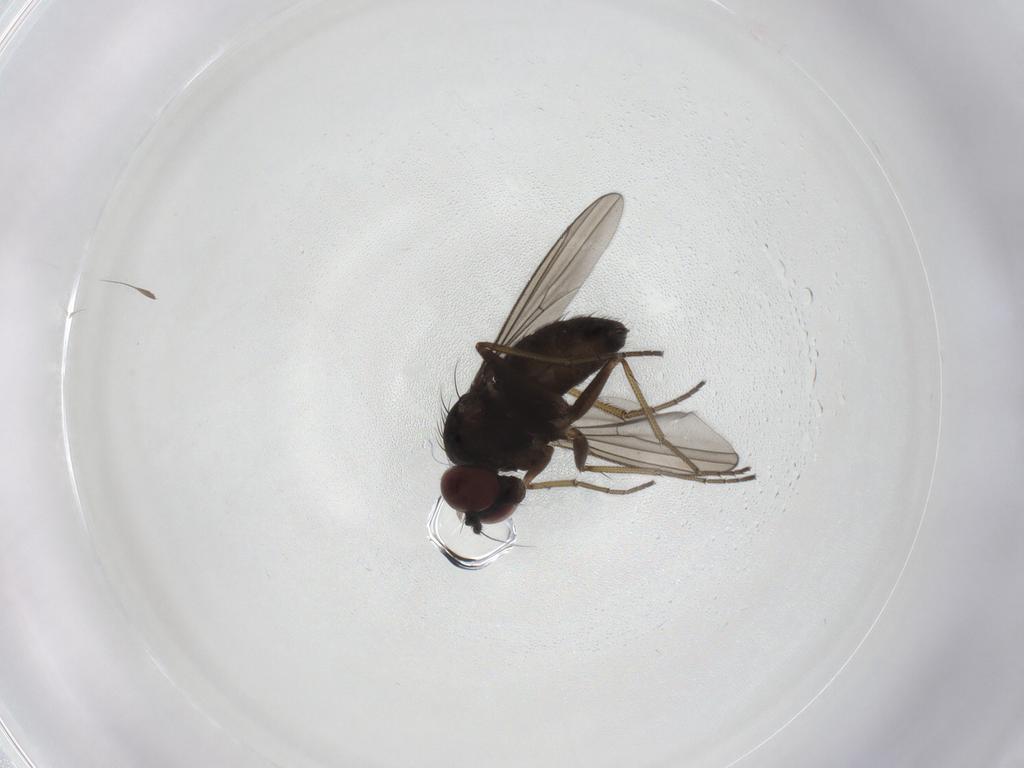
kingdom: Animalia
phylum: Arthropoda
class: Insecta
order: Diptera
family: Dolichopodidae
